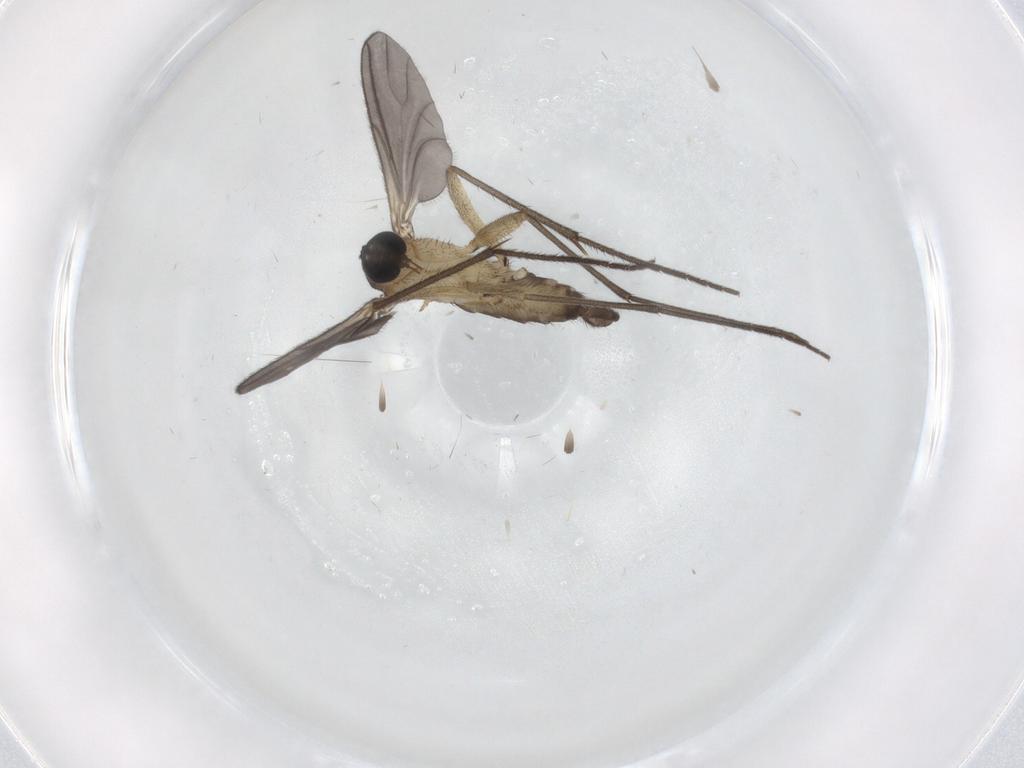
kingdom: Animalia
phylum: Arthropoda
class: Insecta
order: Diptera
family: Sciaridae
